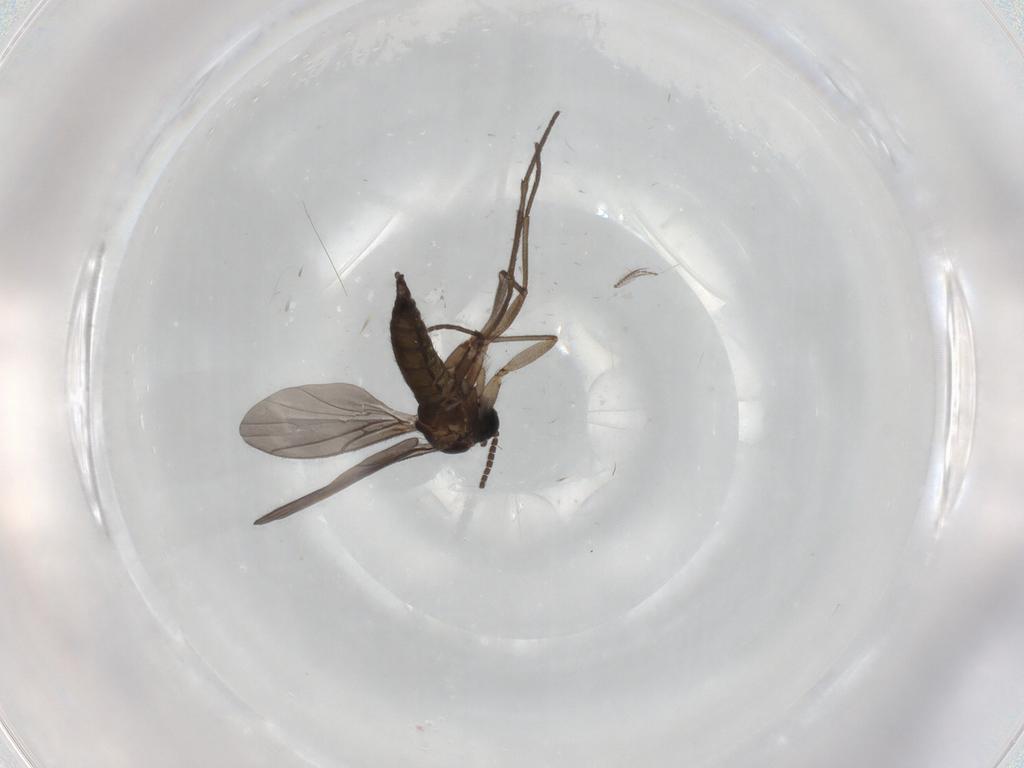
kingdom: Animalia
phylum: Arthropoda
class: Insecta
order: Diptera
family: Sciaridae
